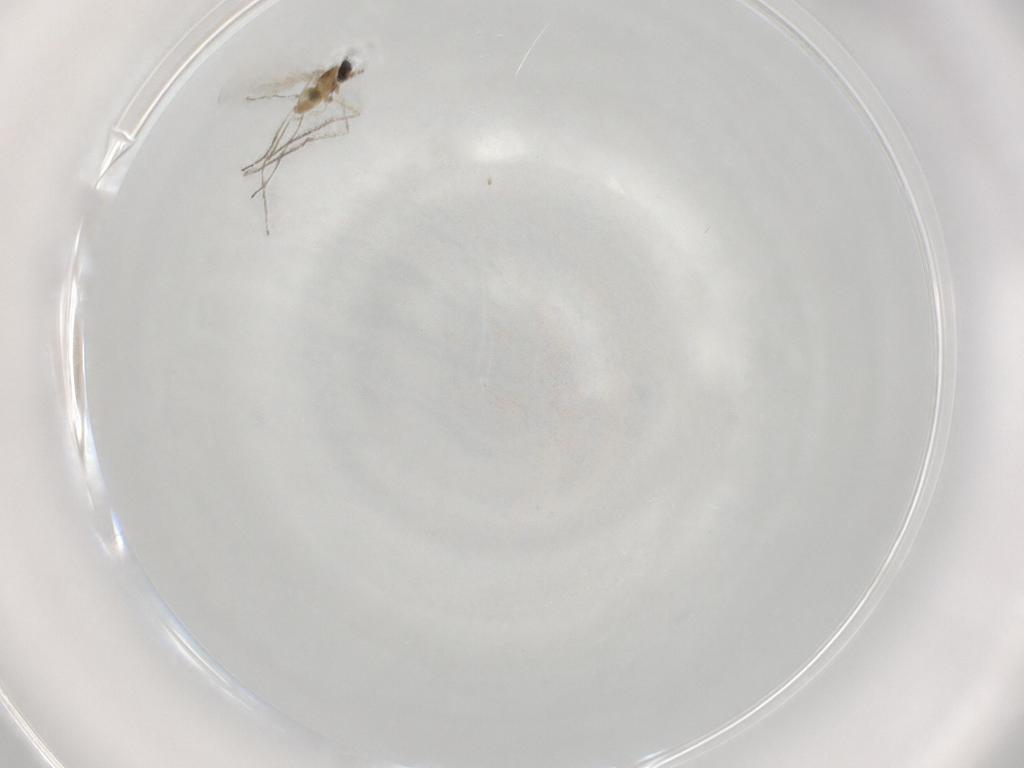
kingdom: Animalia
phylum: Arthropoda
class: Insecta
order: Diptera
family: Cecidomyiidae
